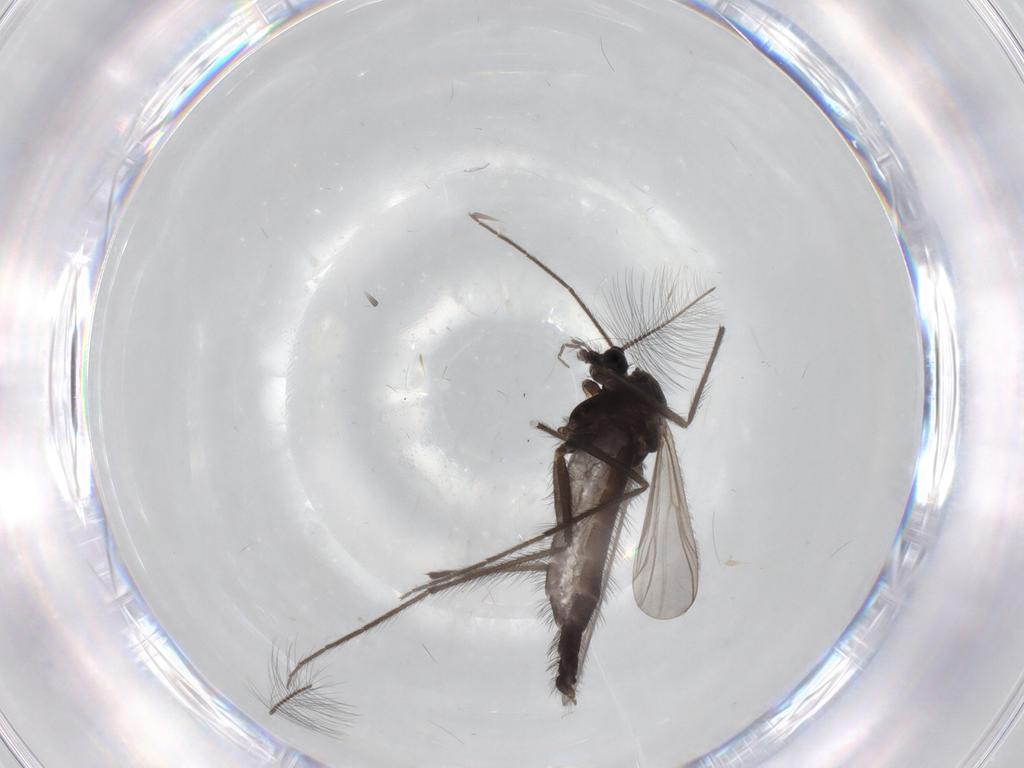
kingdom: Animalia
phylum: Arthropoda
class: Insecta
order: Diptera
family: Chironomidae
